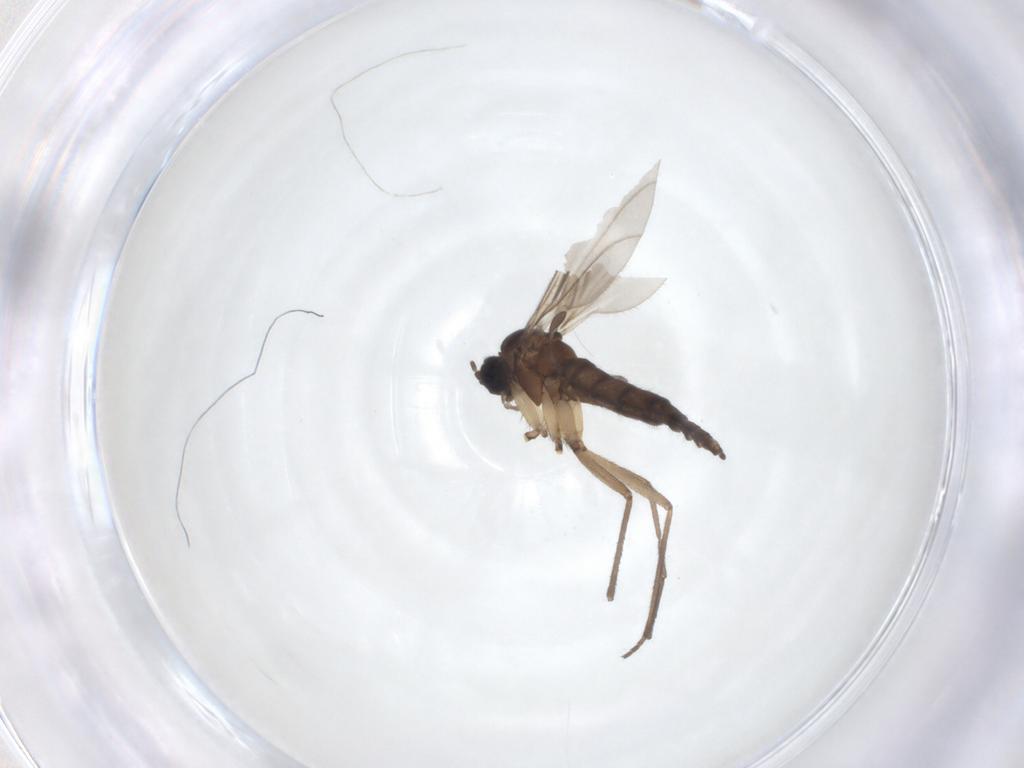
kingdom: Animalia
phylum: Arthropoda
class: Insecta
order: Diptera
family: Sciaridae
